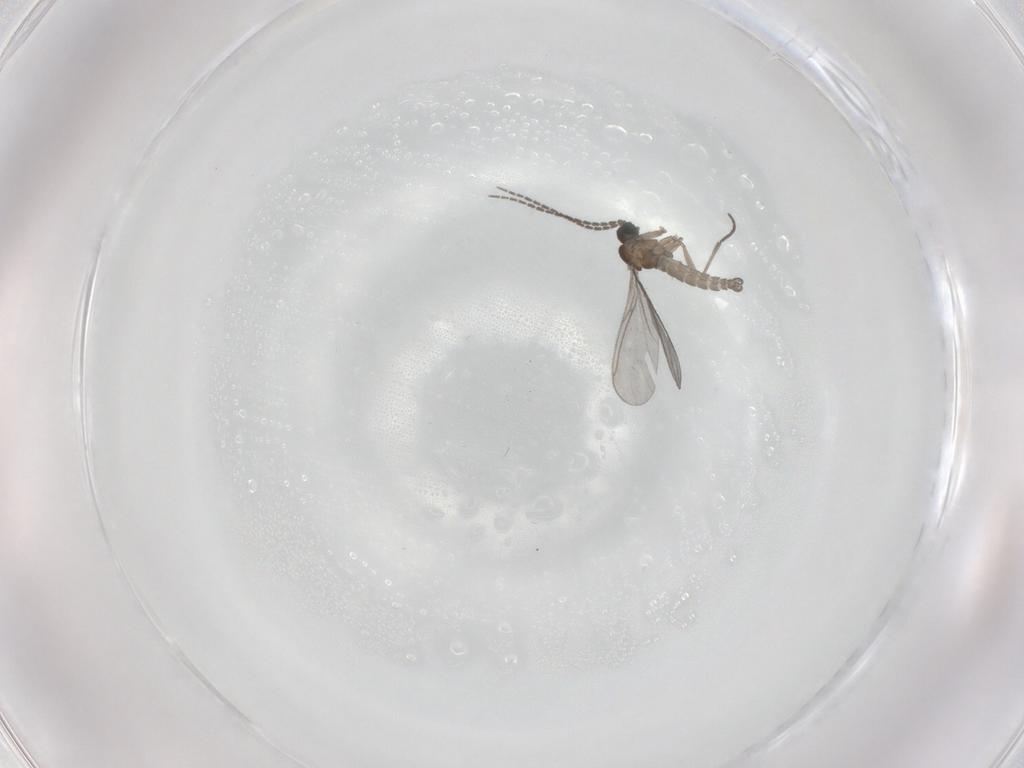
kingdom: Animalia
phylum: Arthropoda
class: Insecta
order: Diptera
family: Sciaridae
